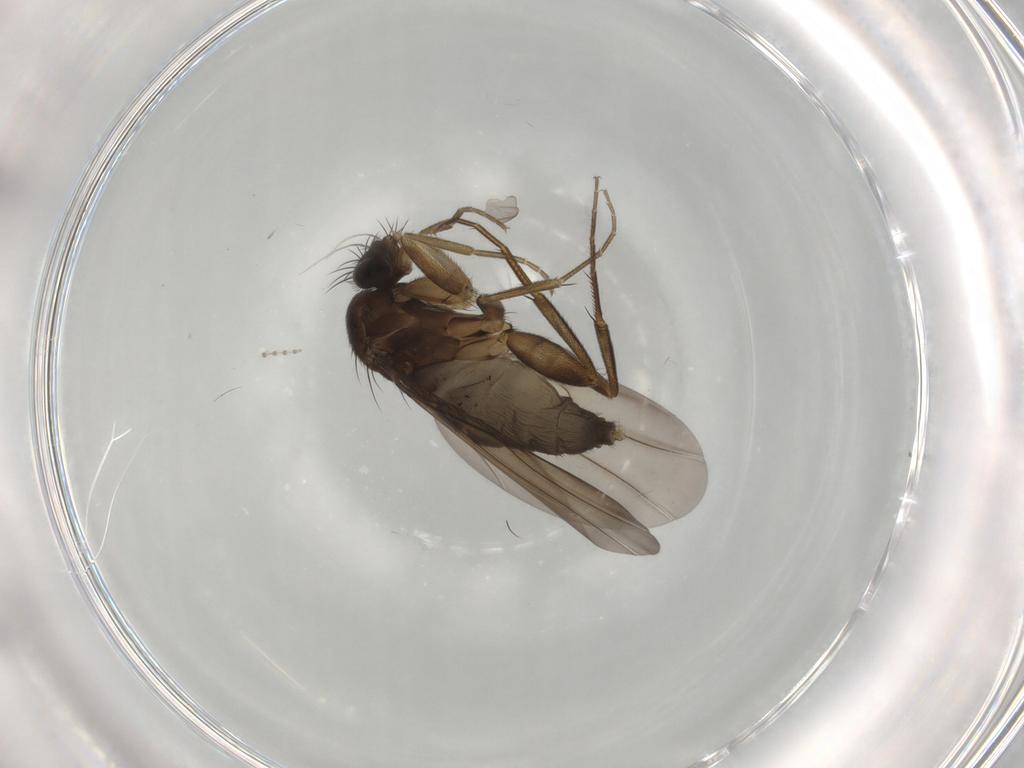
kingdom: Animalia
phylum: Arthropoda
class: Insecta
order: Diptera
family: Phoridae
